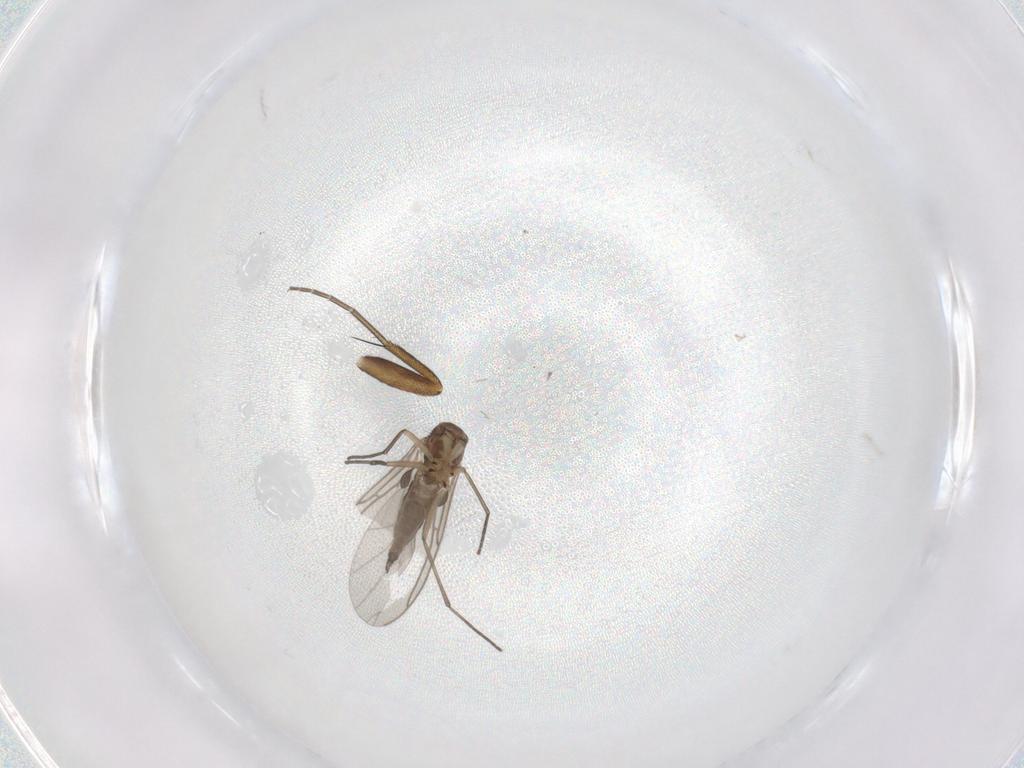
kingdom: Animalia
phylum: Arthropoda
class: Insecta
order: Diptera
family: Sciaridae
